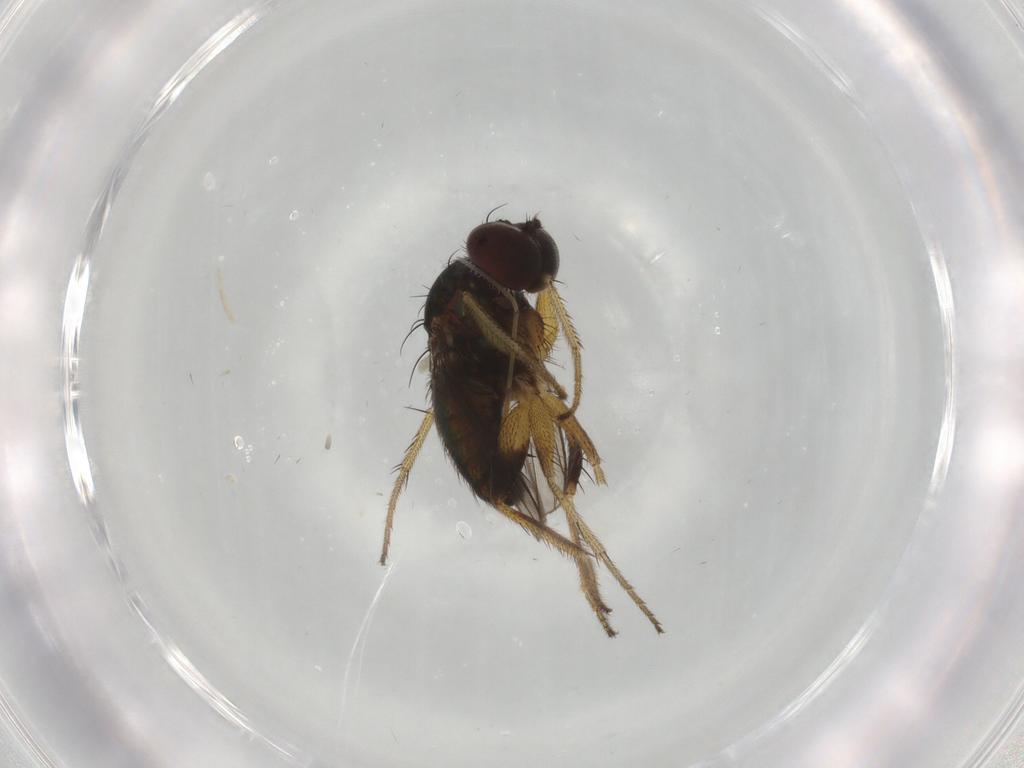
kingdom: Animalia
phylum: Arthropoda
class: Insecta
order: Diptera
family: Dolichopodidae
